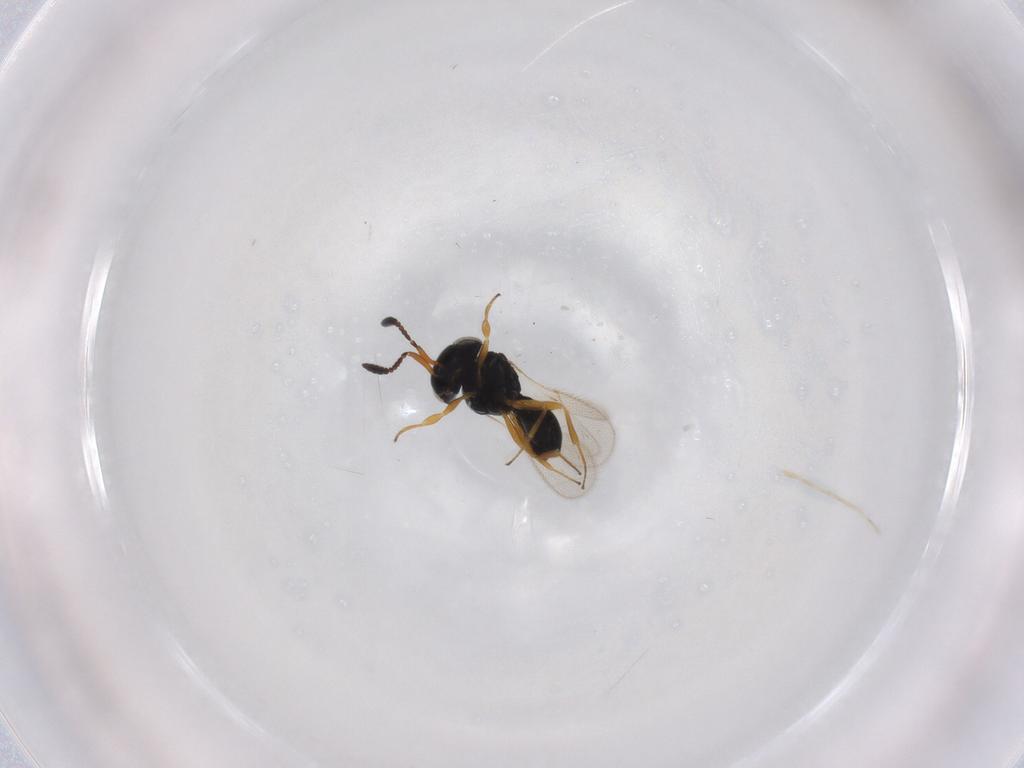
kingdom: Animalia
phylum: Arthropoda
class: Insecta
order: Hymenoptera
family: Scelionidae
